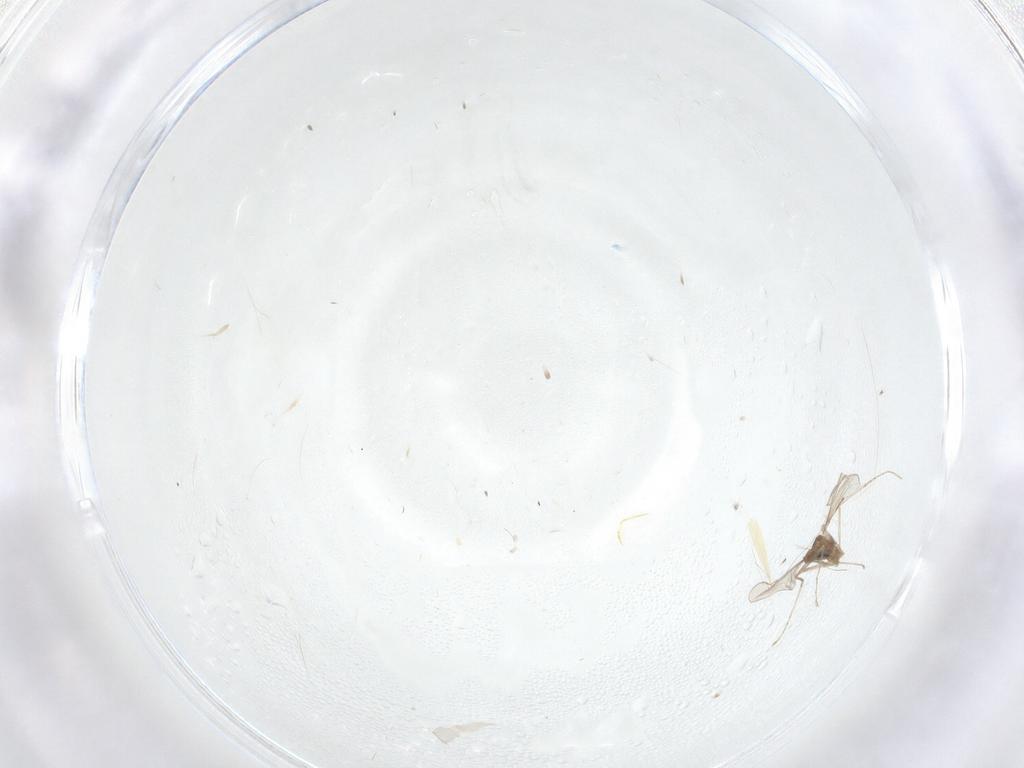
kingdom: Animalia
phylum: Arthropoda
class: Insecta
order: Diptera
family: Cecidomyiidae
